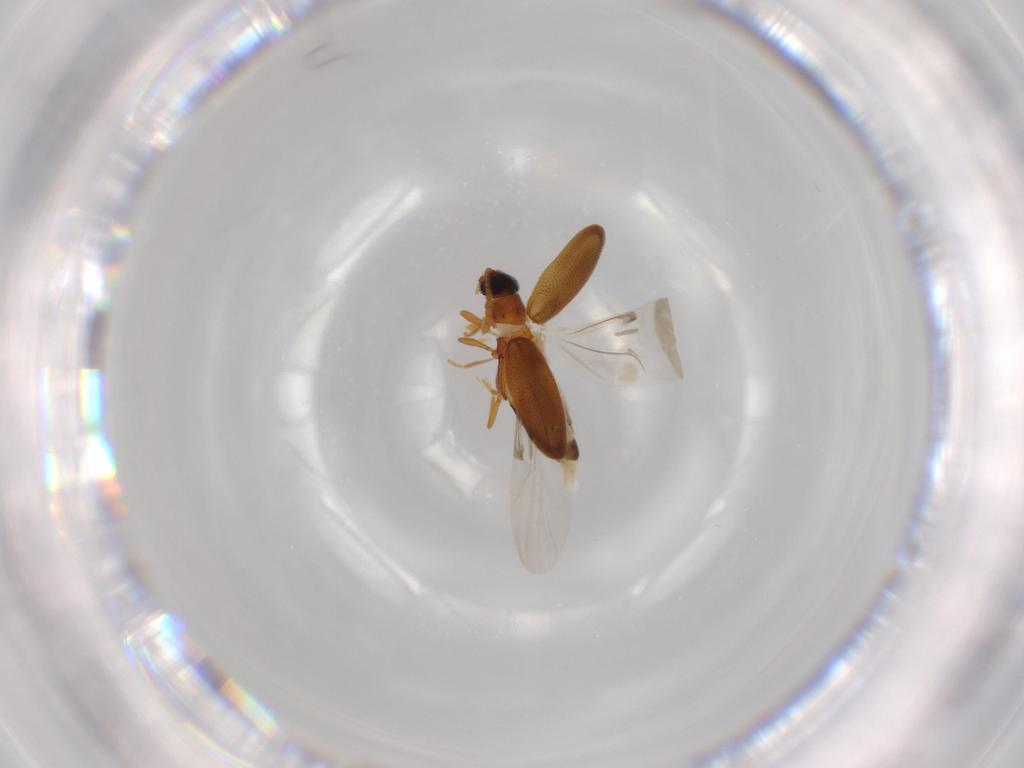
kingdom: Animalia
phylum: Arthropoda
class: Insecta
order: Coleoptera
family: Aderidae
